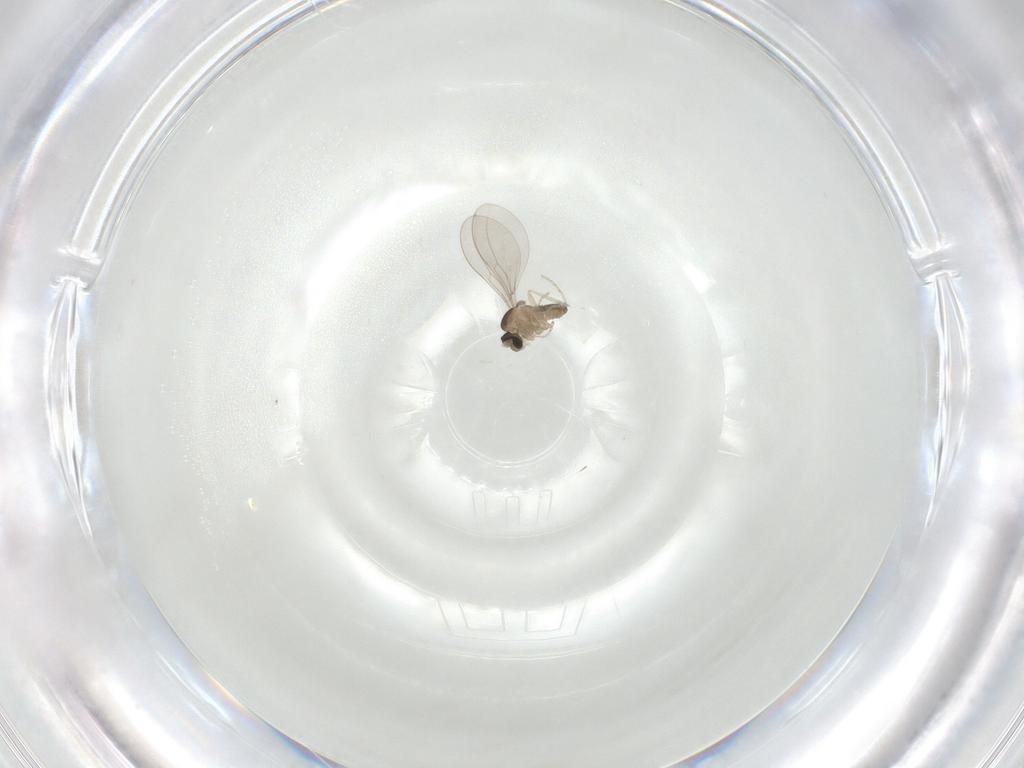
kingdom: Animalia
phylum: Arthropoda
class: Insecta
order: Diptera
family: Cecidomyiidae
